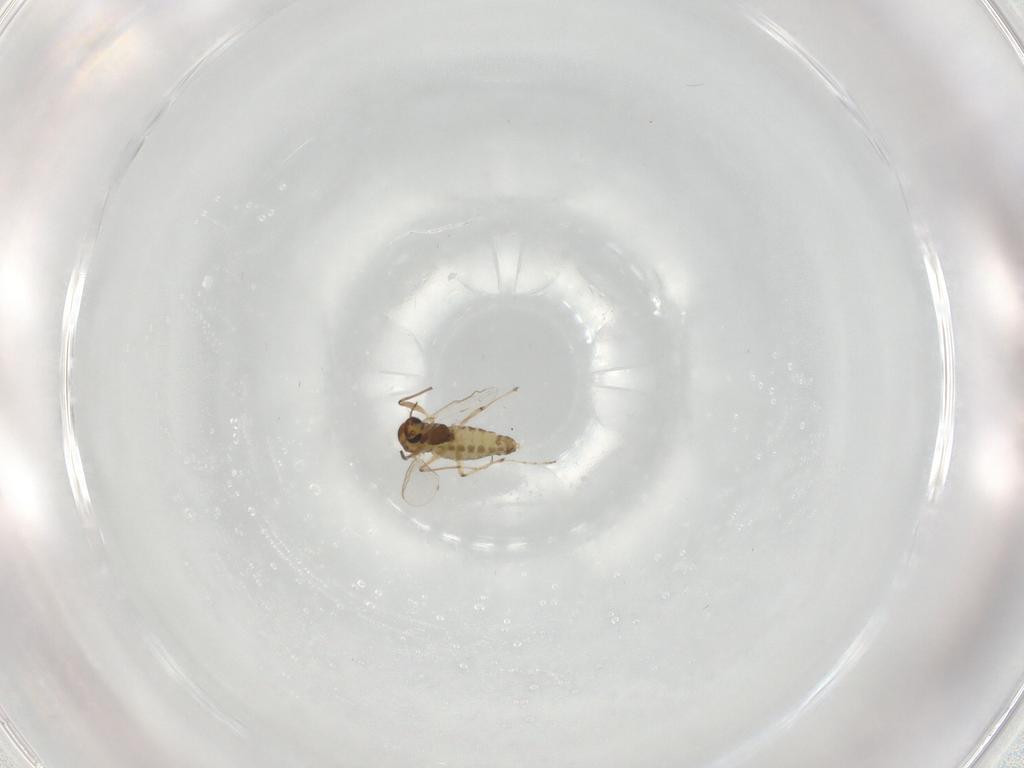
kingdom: Animalia
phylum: Arthropoda
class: Insecta
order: Diptera
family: Chironomidae
